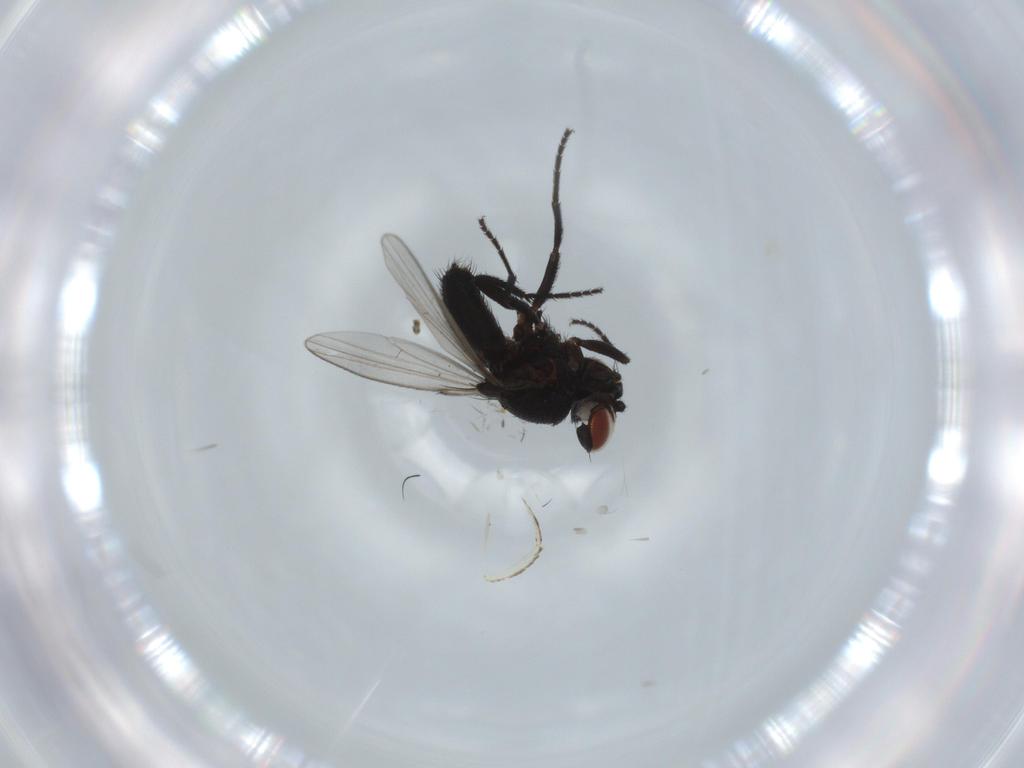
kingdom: Animalia
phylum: Arthropoda
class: Insecta
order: Diptera
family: Milichiidae
